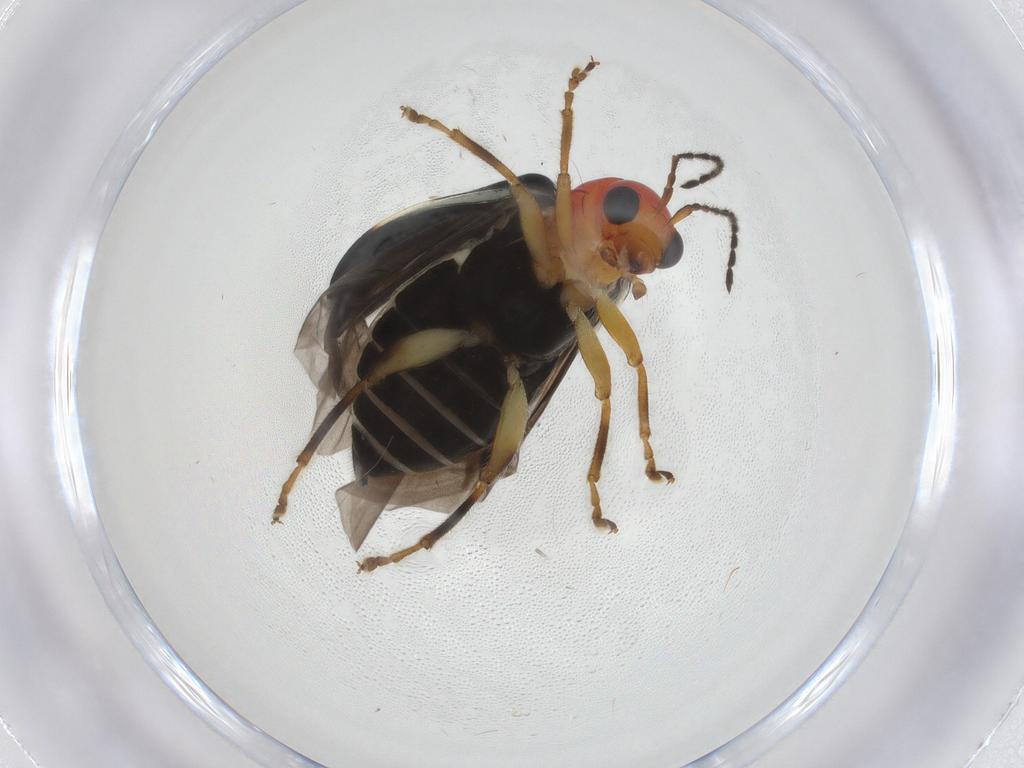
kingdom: Animalia
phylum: Arthropoda
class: Insecta
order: Coleoptera
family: Chrysomelidae
